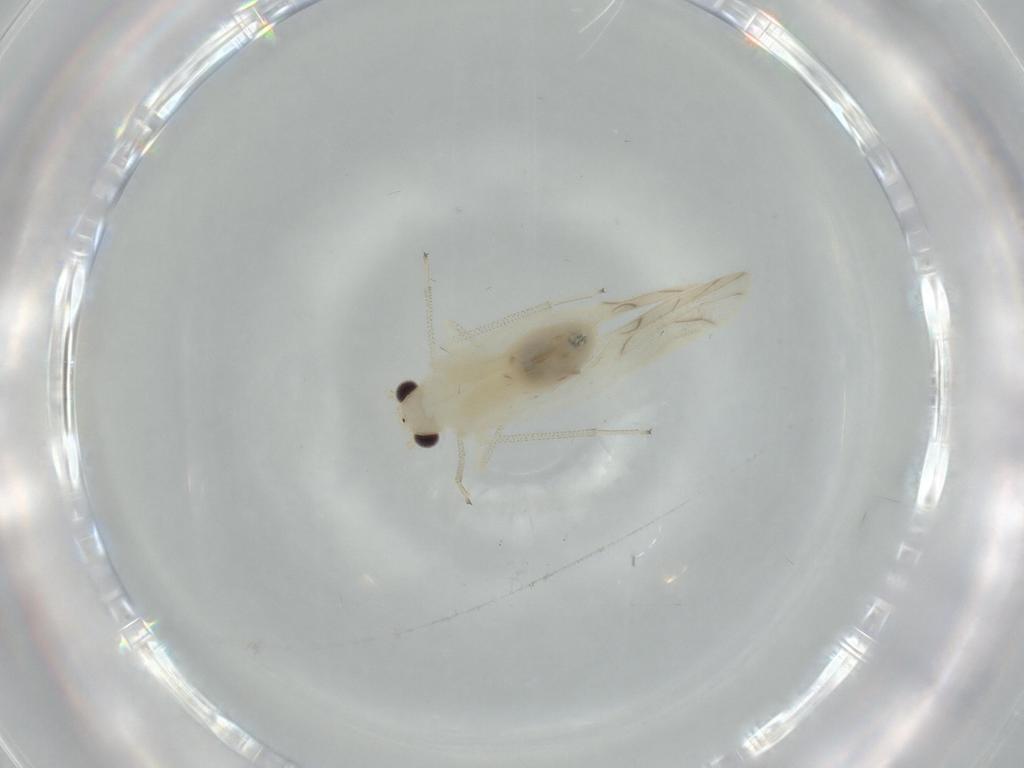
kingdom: Animalia
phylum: Arthropoda
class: Insecta
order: Psocodea
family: Caeciliusidae
